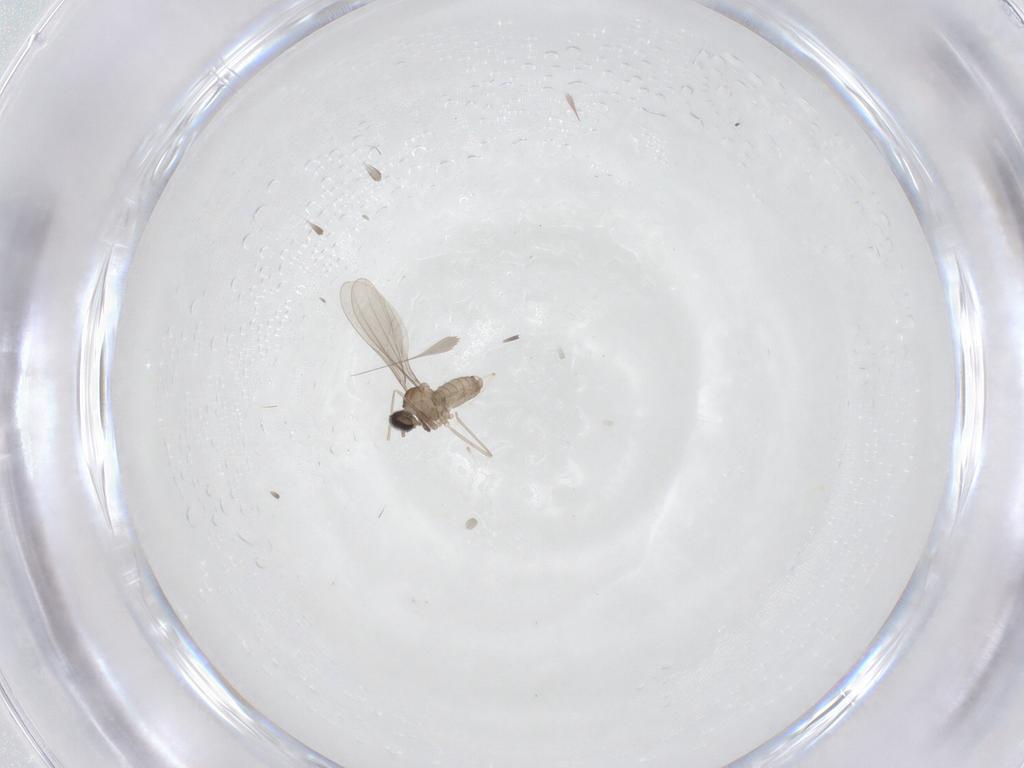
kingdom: Animalia
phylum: Arthropoda
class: Insecta
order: Diptera
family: Cecidomyiidae
